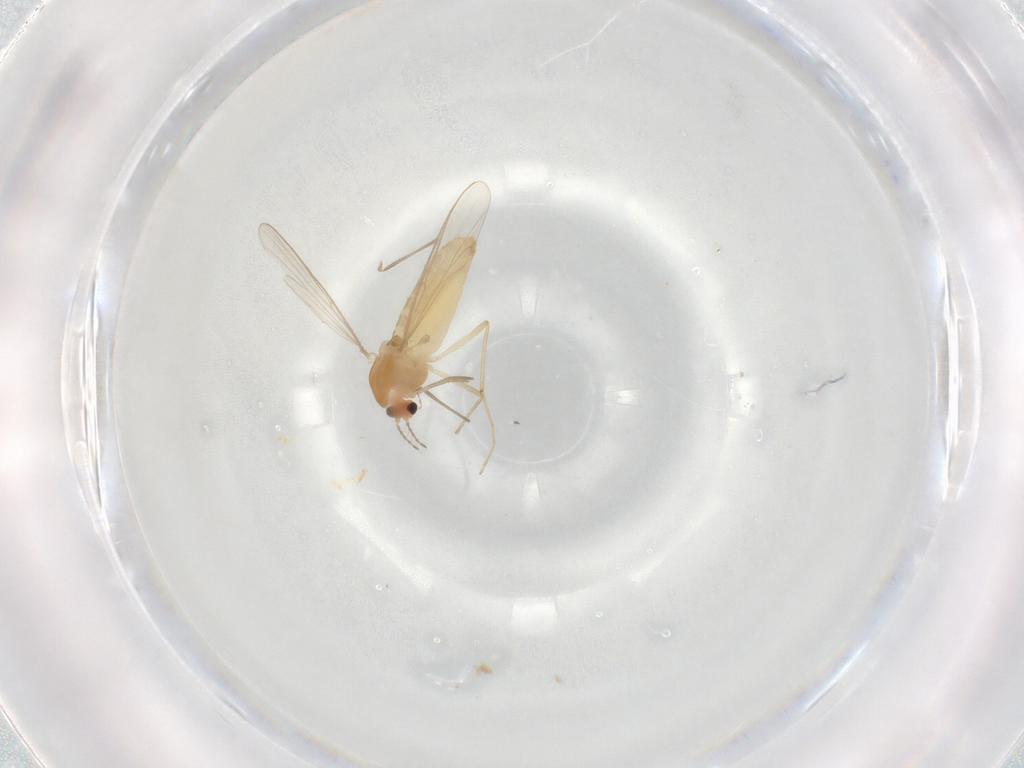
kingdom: Animalia
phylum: Arthropoda
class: Insecta
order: Diptera
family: Chironomidae
